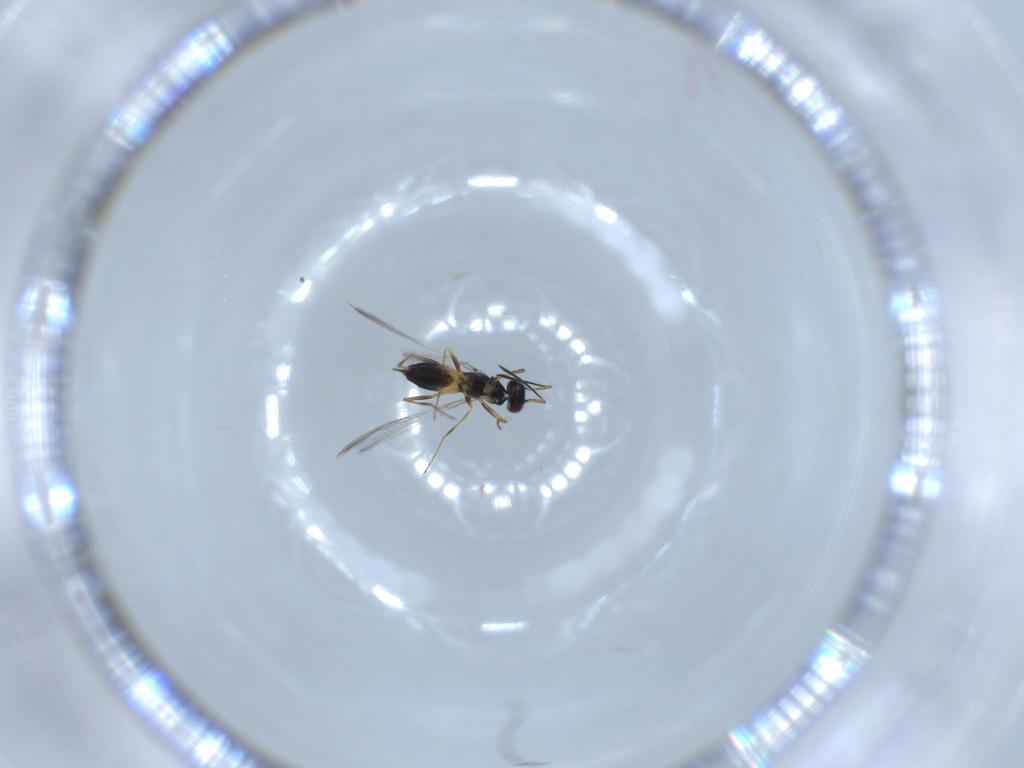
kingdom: Animalia
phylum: Arthropoda
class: Insecta
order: Hymenoptera
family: Mymaridae
